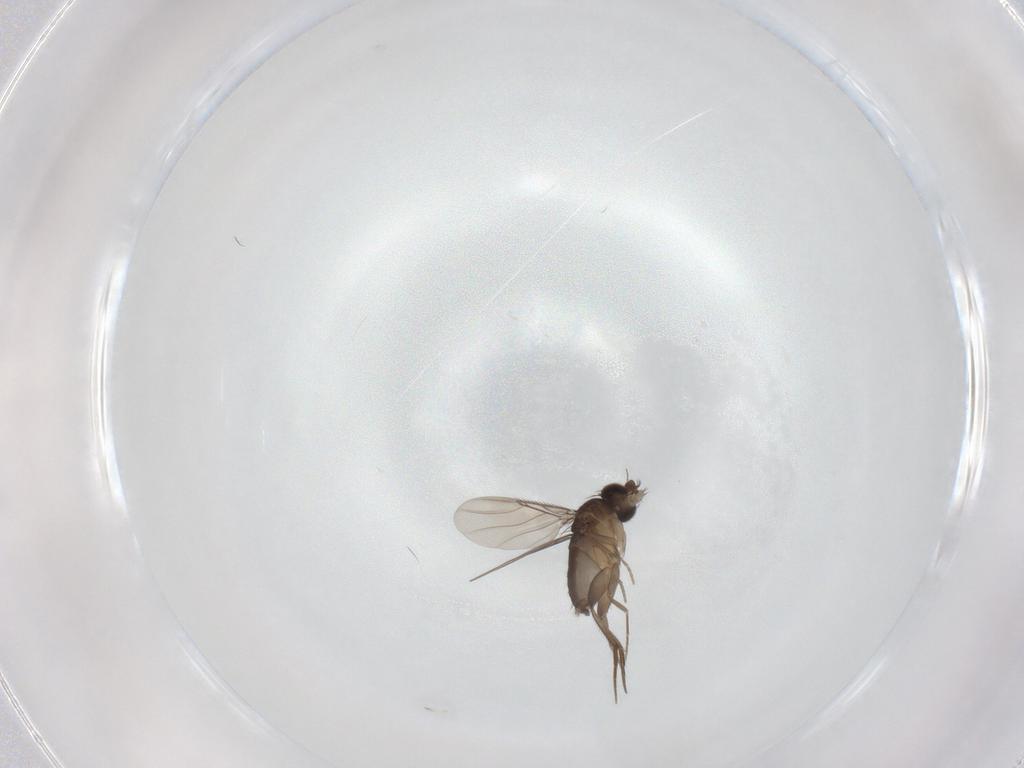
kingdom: Animalia
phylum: Arthropoda
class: Insecta
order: Diptera
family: Phoridae
